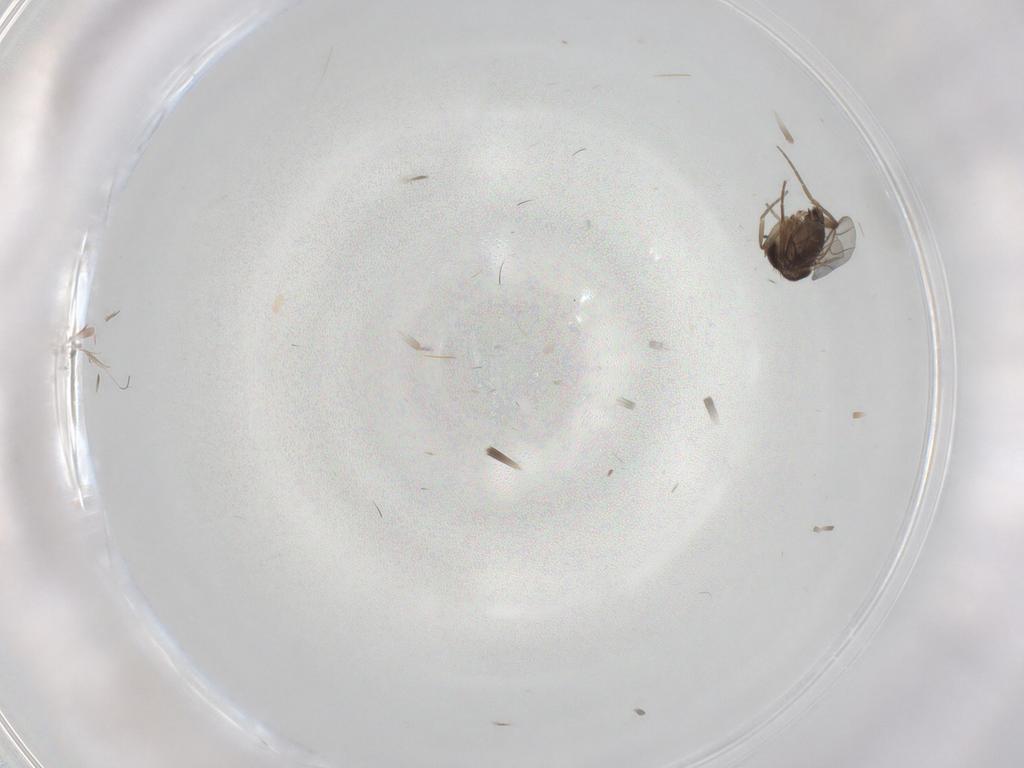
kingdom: Animalia
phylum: Arthropoda
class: Insecta
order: Diptera
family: Phoridae
